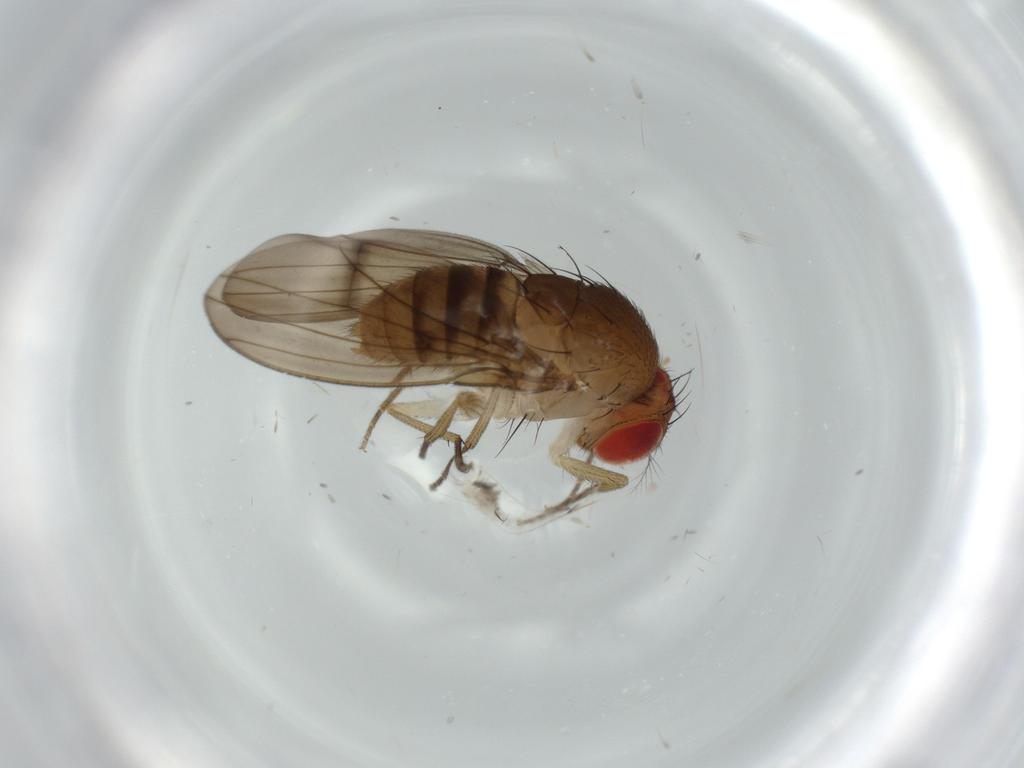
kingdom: Animalia
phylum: Arthropoda
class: Insecta
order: Diptera
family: Drosophilidae
